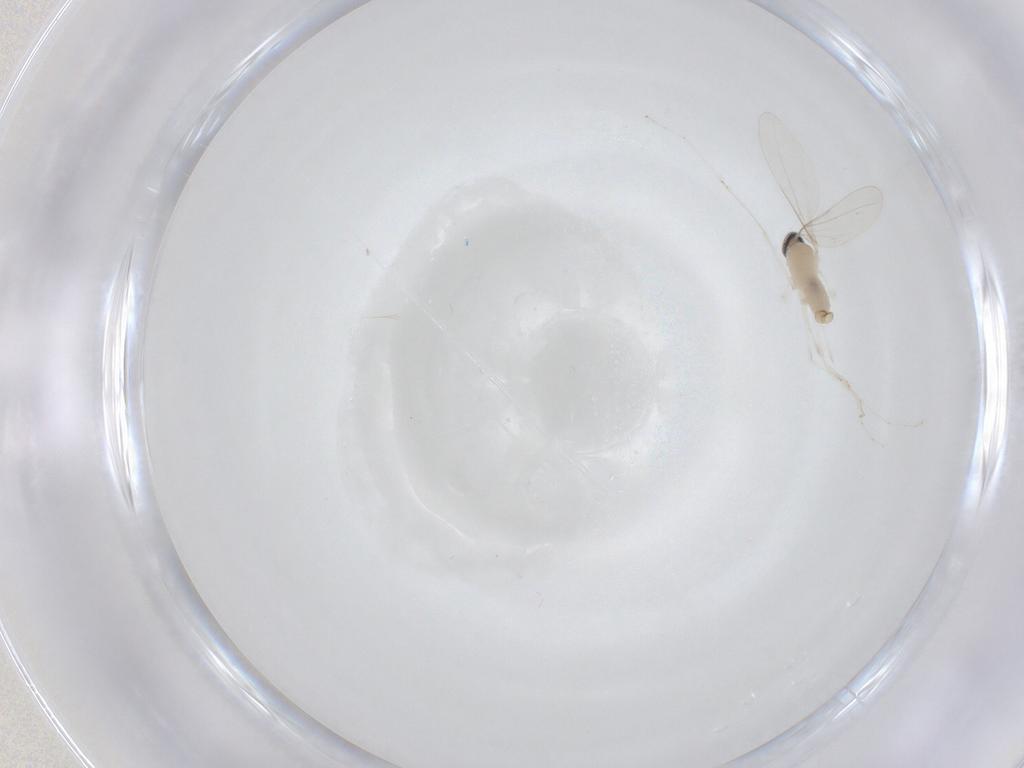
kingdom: Animalia
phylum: Arthropoda
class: Insecta
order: Diptera
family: Cecidomyiidae
